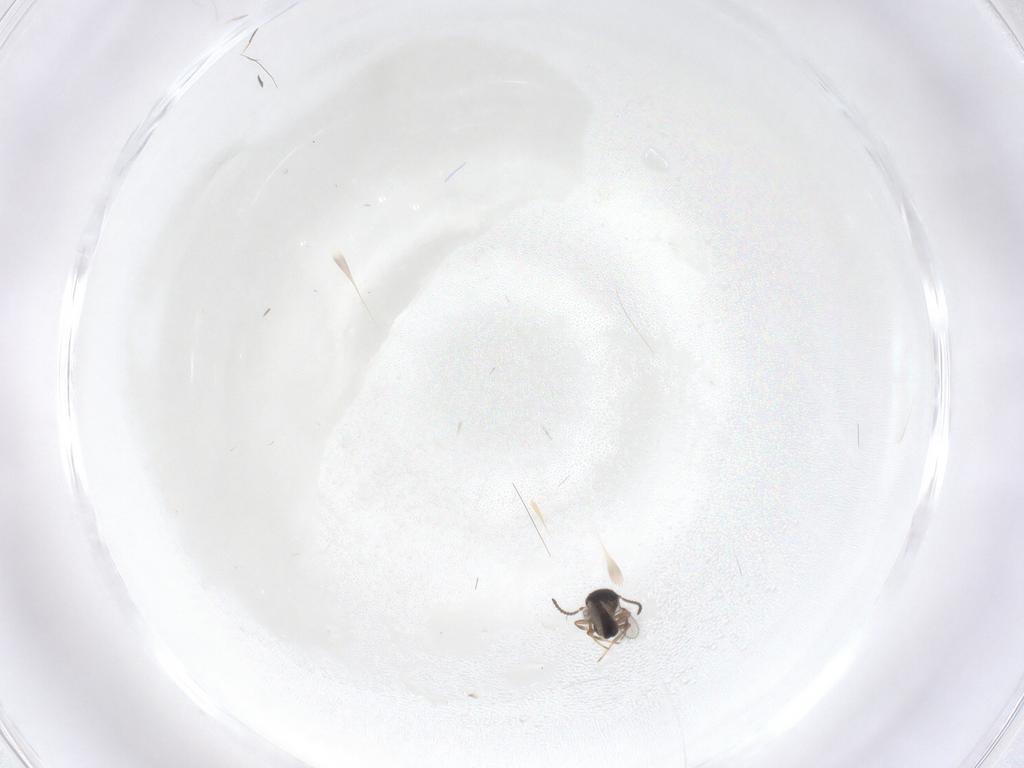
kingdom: Animalia
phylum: Arthropoda
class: Insecta
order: Hymenoptera
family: Scelionidae
